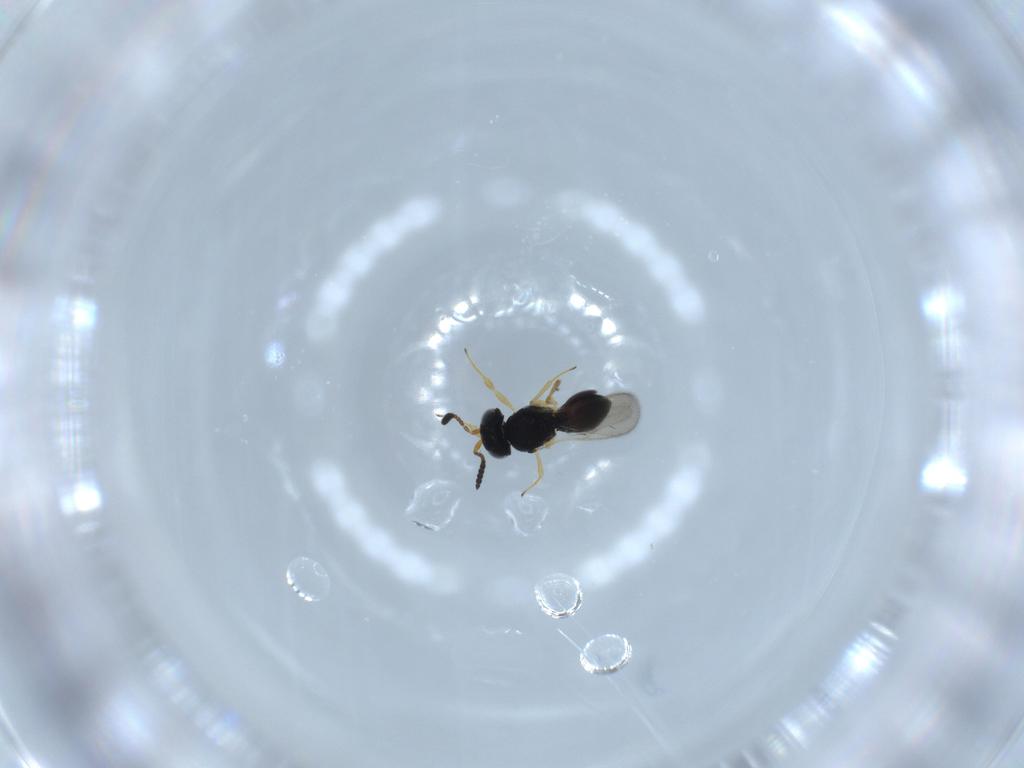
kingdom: Animalia
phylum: Arthropoda
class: Insecta
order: Hymenoptera
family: Scelionidae
